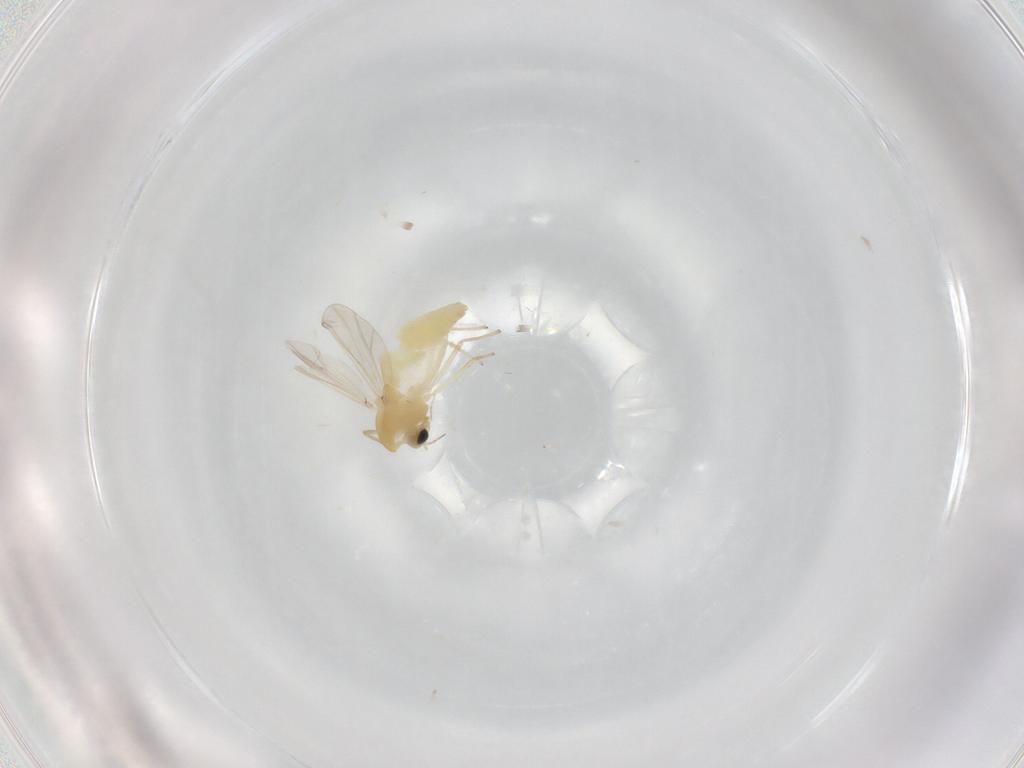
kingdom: Animalia
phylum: Arthropoda
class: Insecta
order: Diptera
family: Chironomidae
